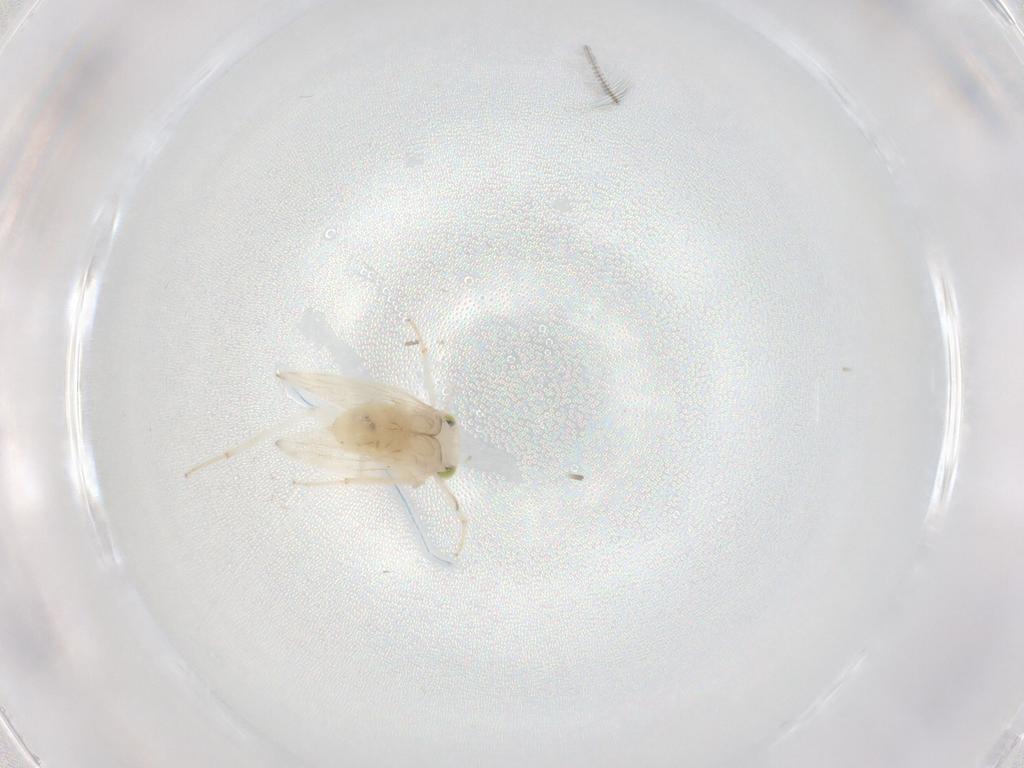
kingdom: Animalia
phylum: Arthropoda
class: Insecta
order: Psocodea
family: Lepidopsocidae
